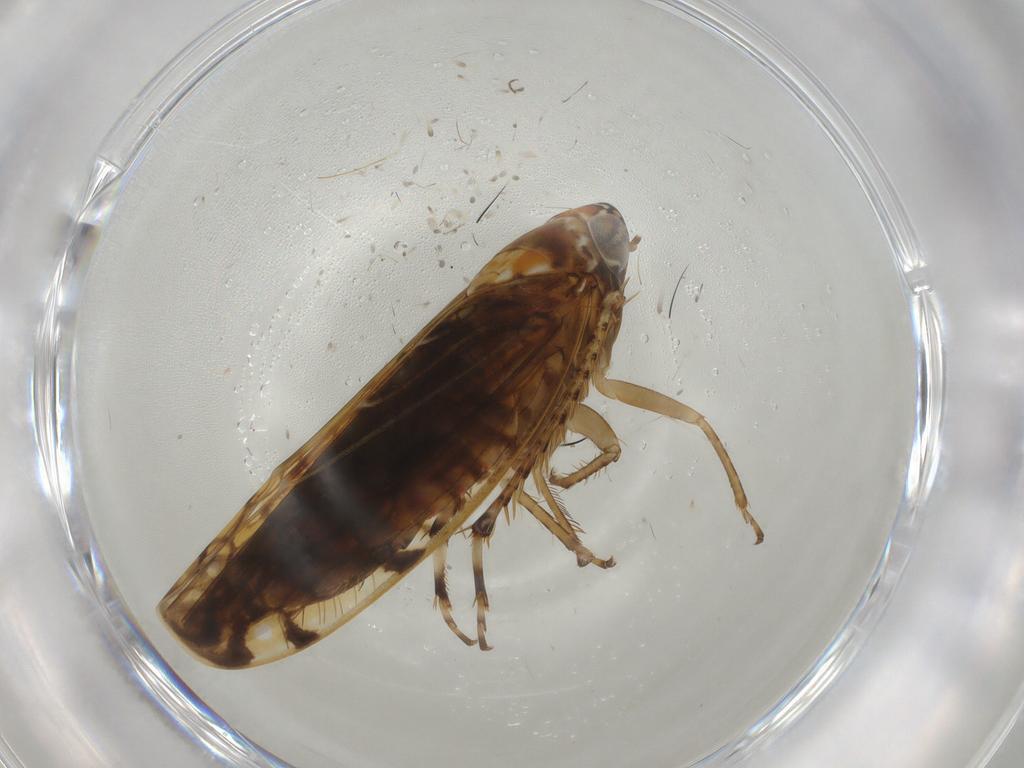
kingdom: Animalia
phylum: Arthropoda
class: Insecta
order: Hemiptera
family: Cicadellidae
